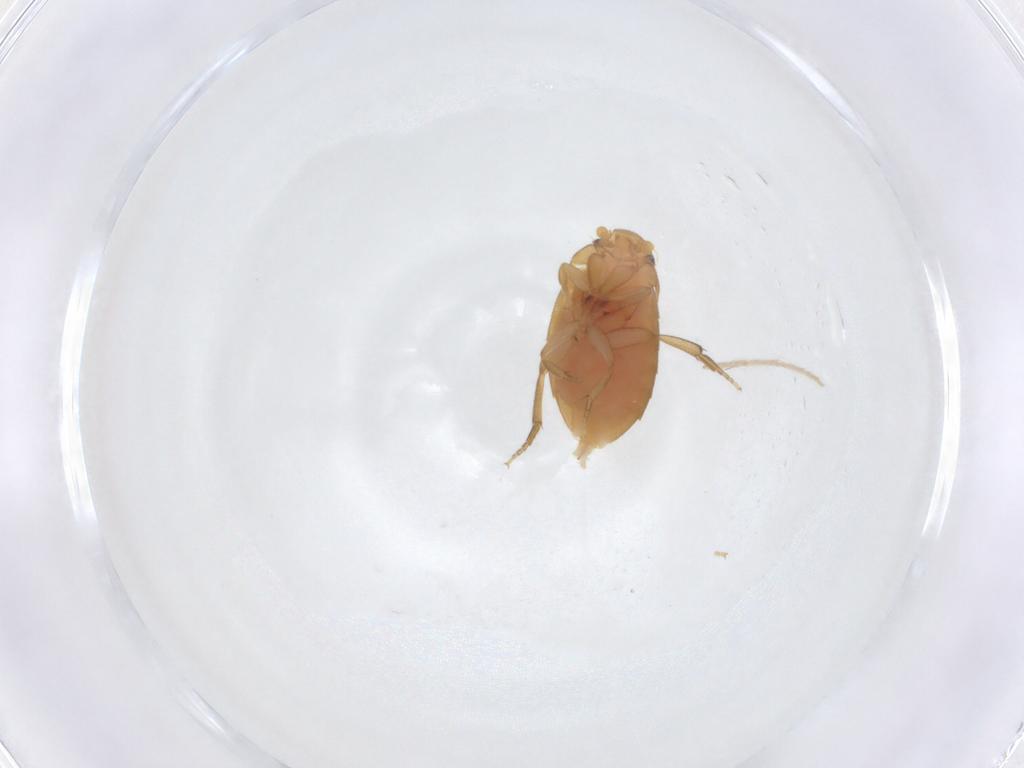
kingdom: Animalia
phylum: Arthropoda
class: Insecta
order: Diptera
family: Phoridae
